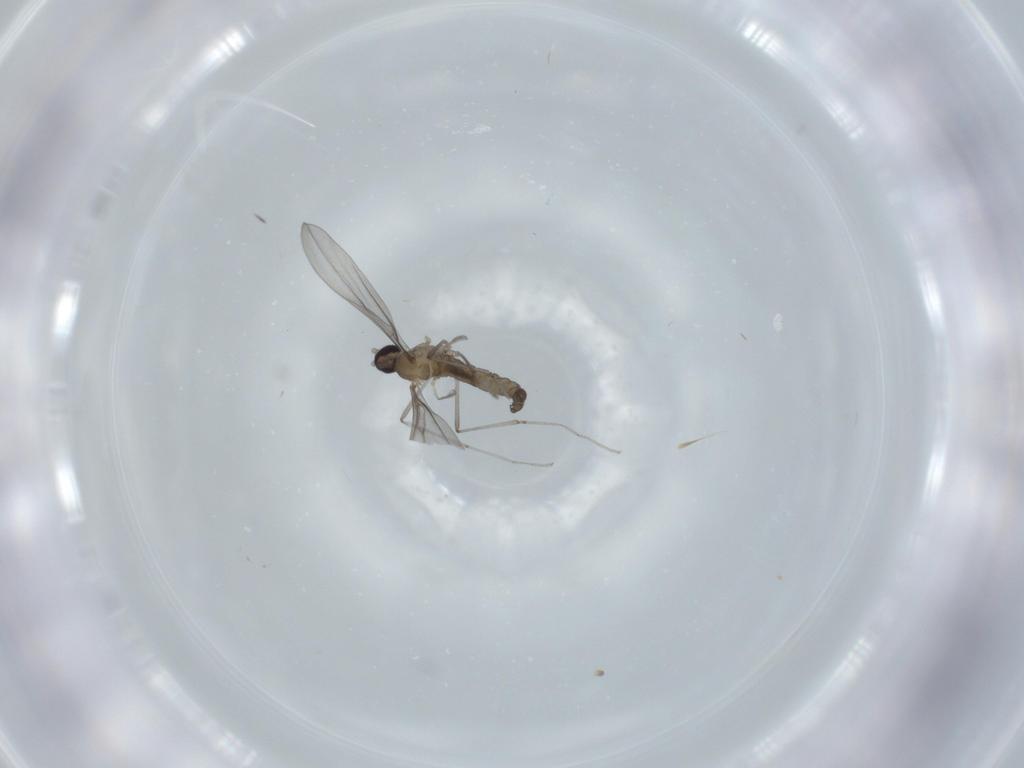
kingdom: Animalia
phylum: Arthropoda
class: Insecta
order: Diptera
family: Cecidomyiidae
